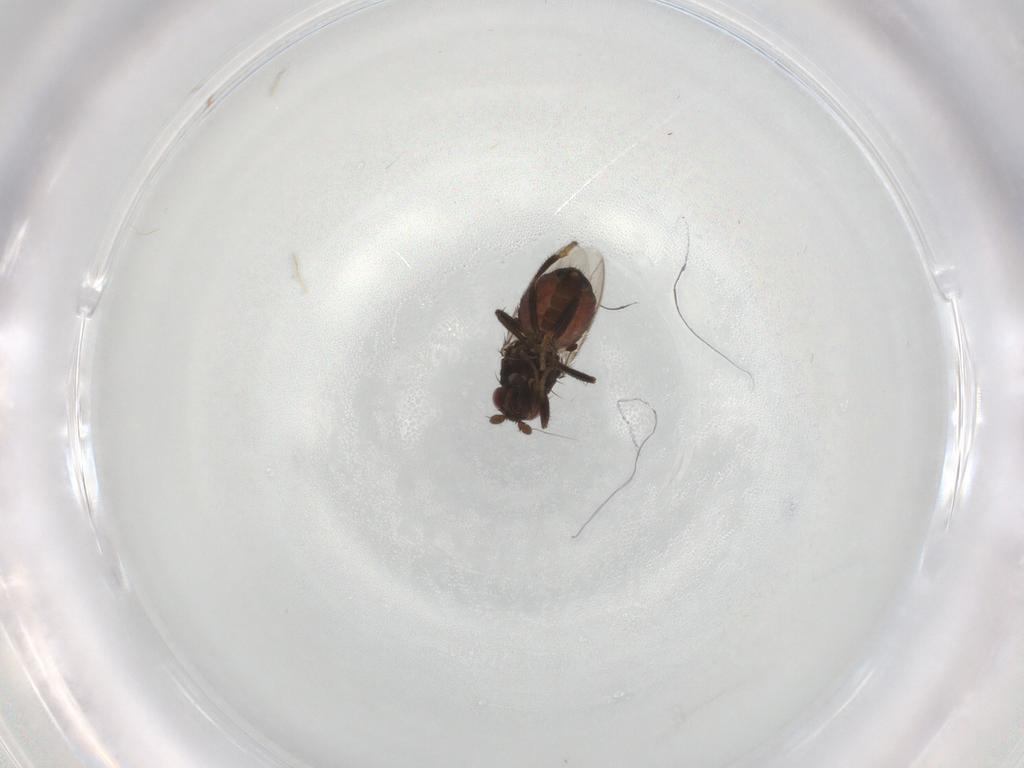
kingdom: Animalia
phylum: Arthropoda
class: Insecta
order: Diptera
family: Sphaeroceridae
